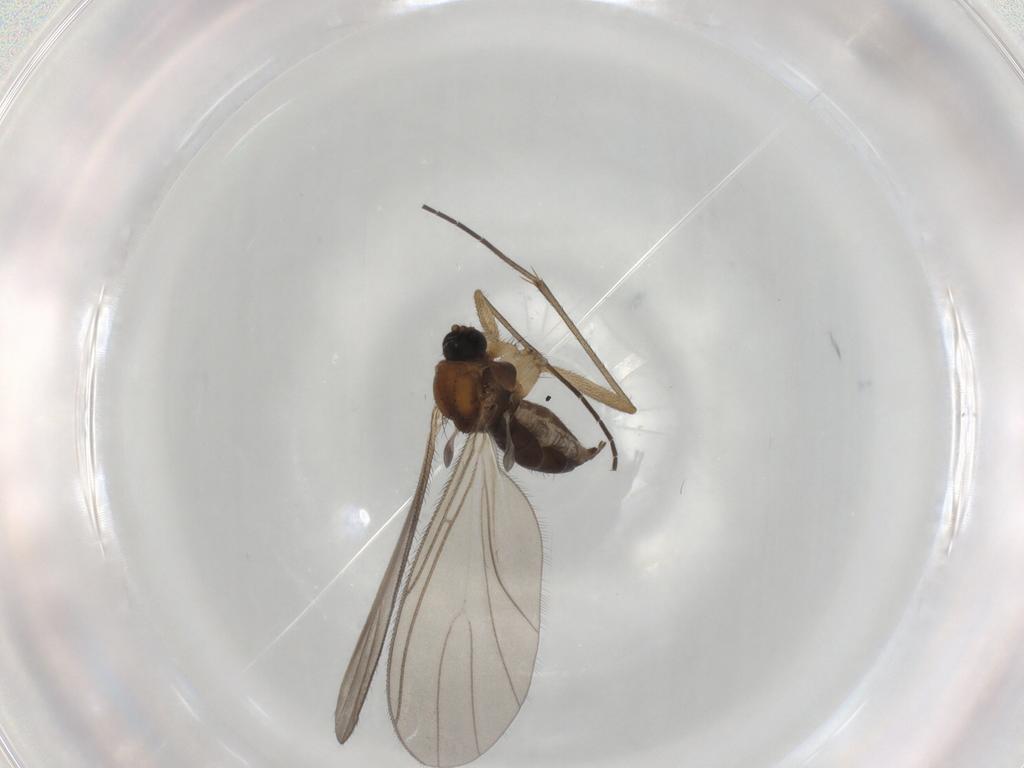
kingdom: Animalia
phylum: Arthropoda
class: Insecta
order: Diptera
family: Sciaridae
